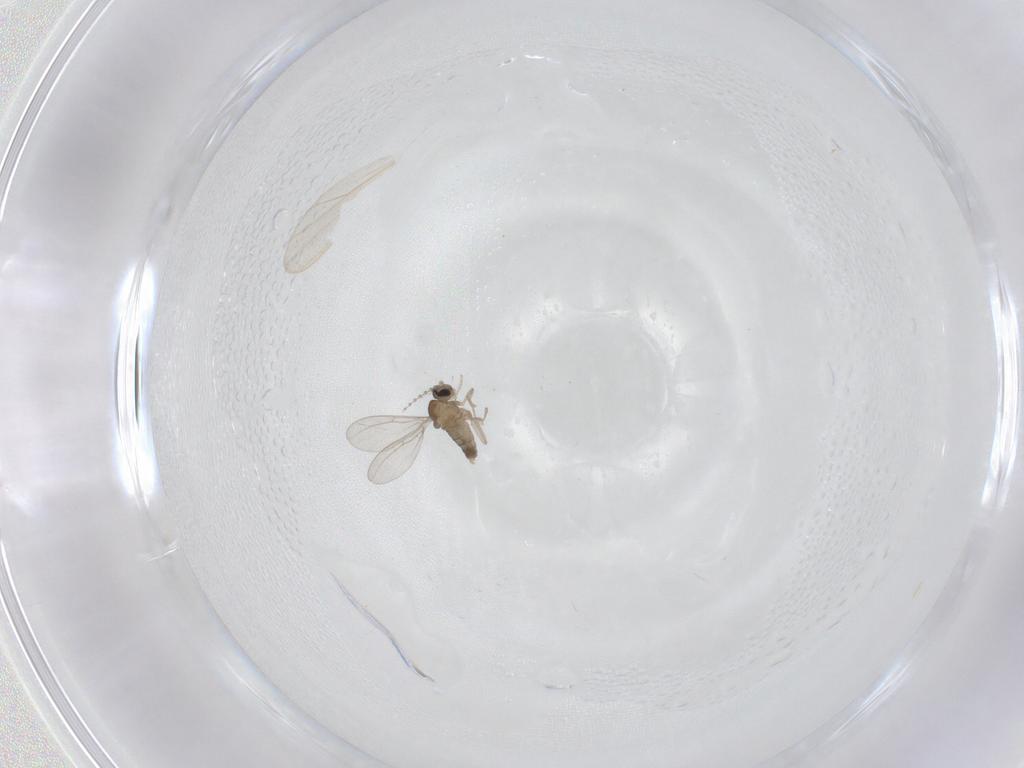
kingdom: Animalia
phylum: Arthropoda
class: Insecta
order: Diptera
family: Cecidomyiidae
